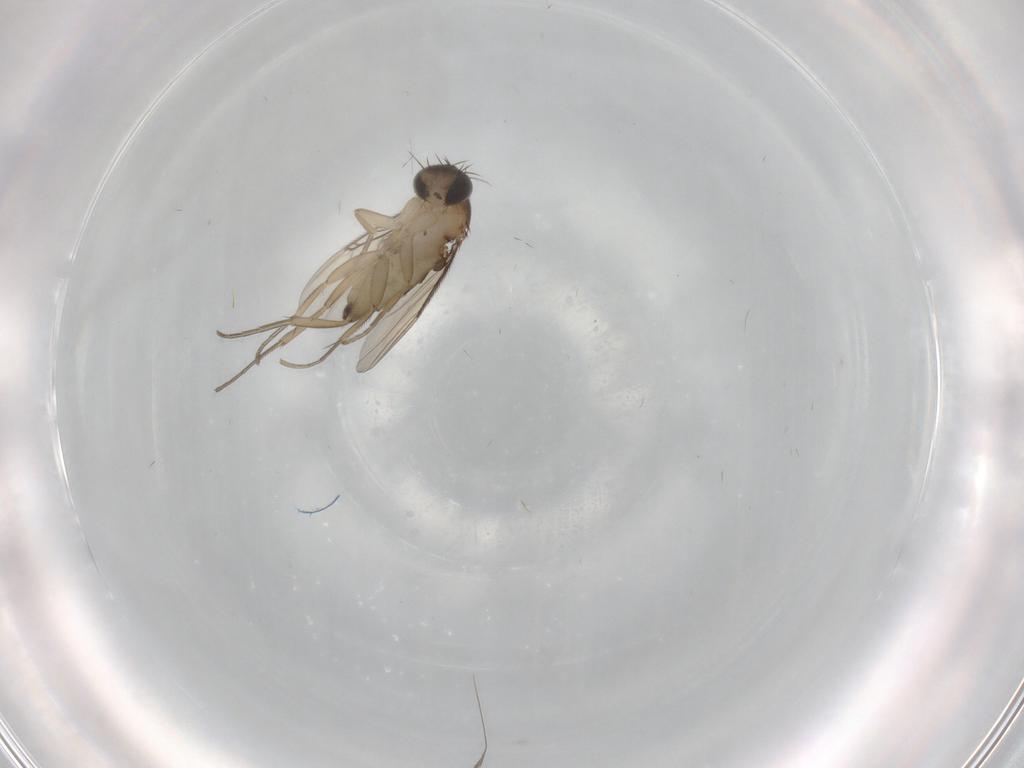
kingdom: Animalia
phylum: Arthropoda
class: Insecta
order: Diptera
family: Phoridae
